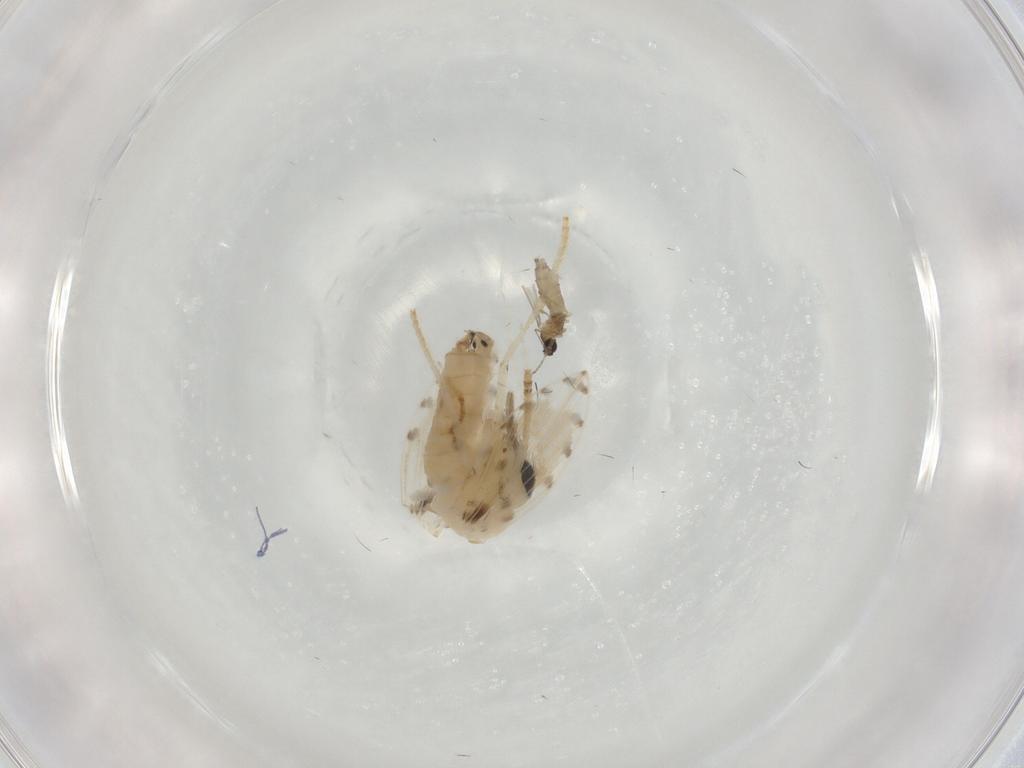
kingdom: Animalia
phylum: Arthropoda
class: Insecta
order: Diptera
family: Psychodidae
